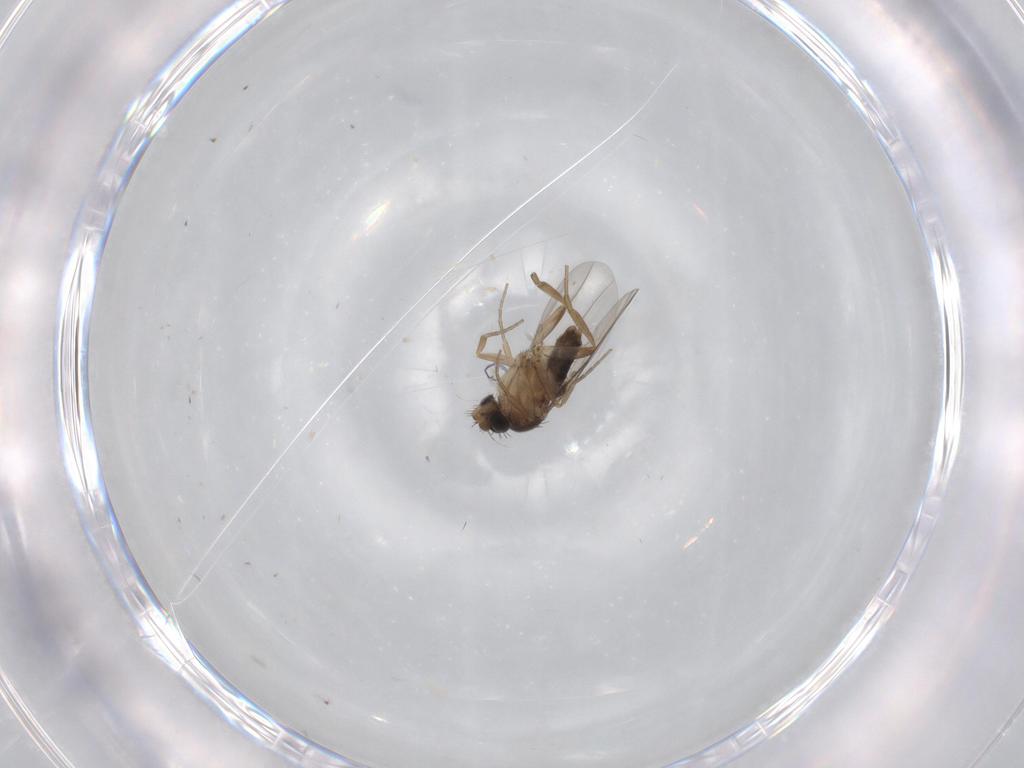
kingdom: Animalia
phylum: Arthropoda
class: Insecta
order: Diptera
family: Phoridae
